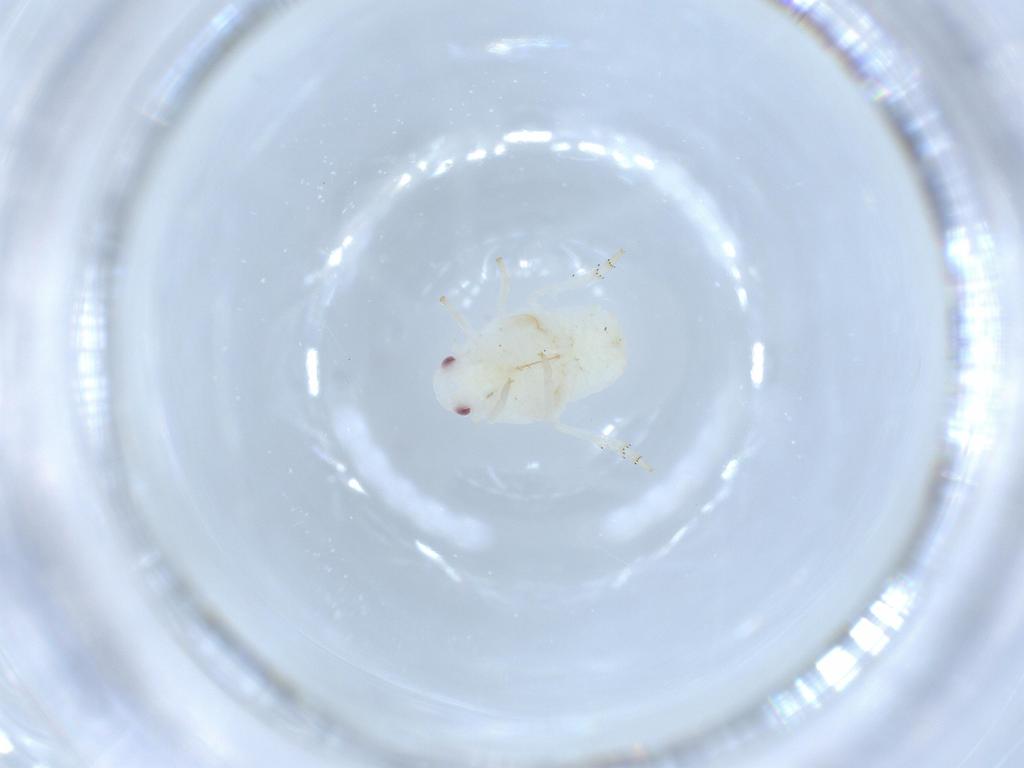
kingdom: Animalia
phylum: Arthropoda
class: Insecta
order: Hemiptera
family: Flatidae
